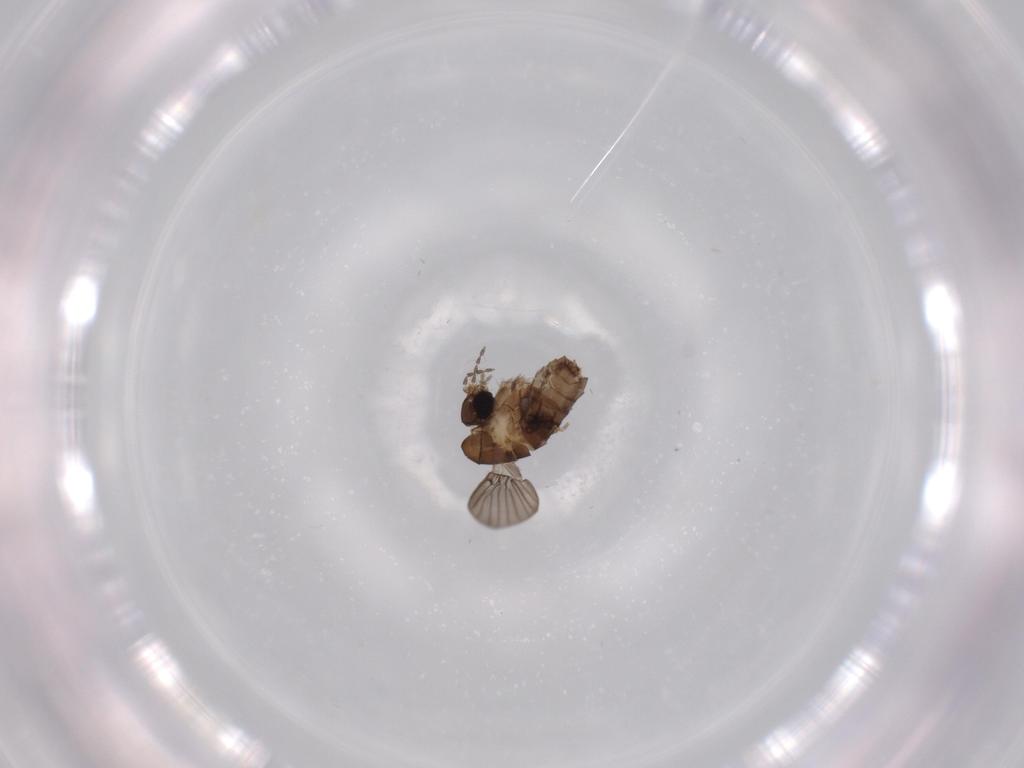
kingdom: Animalia
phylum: Arthropoda
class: Insecta
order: Diptera
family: Psychodidae
